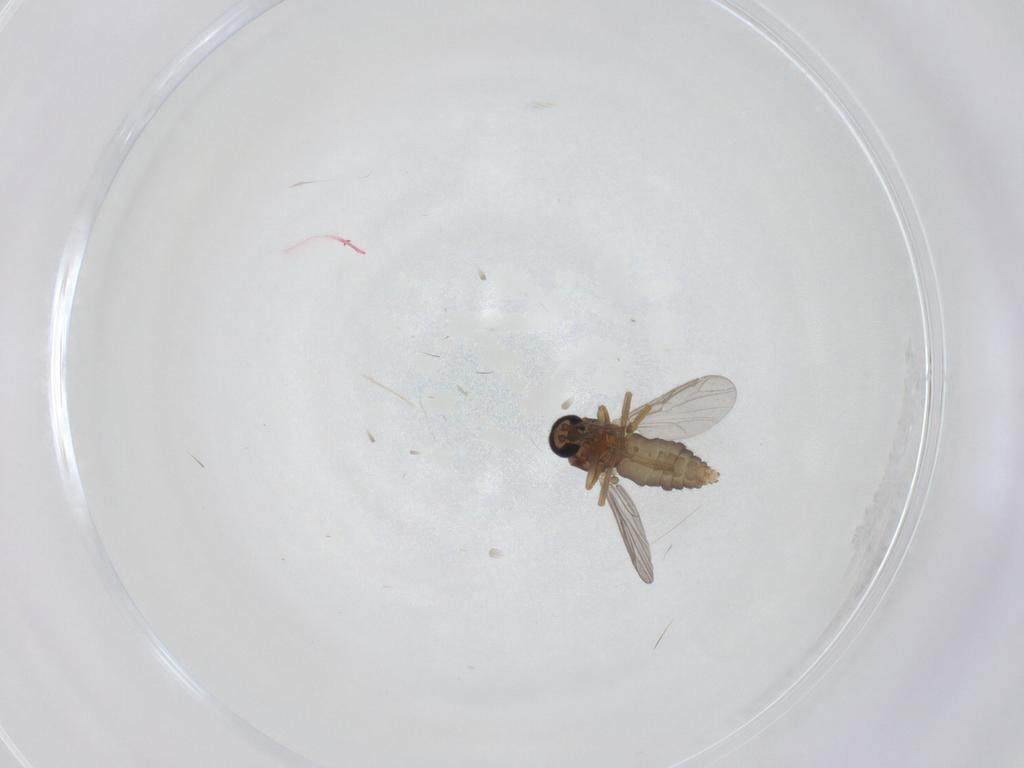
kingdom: Animalia
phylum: Arthropoda
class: Insecta
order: Diptera
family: Ceratopogonidae
